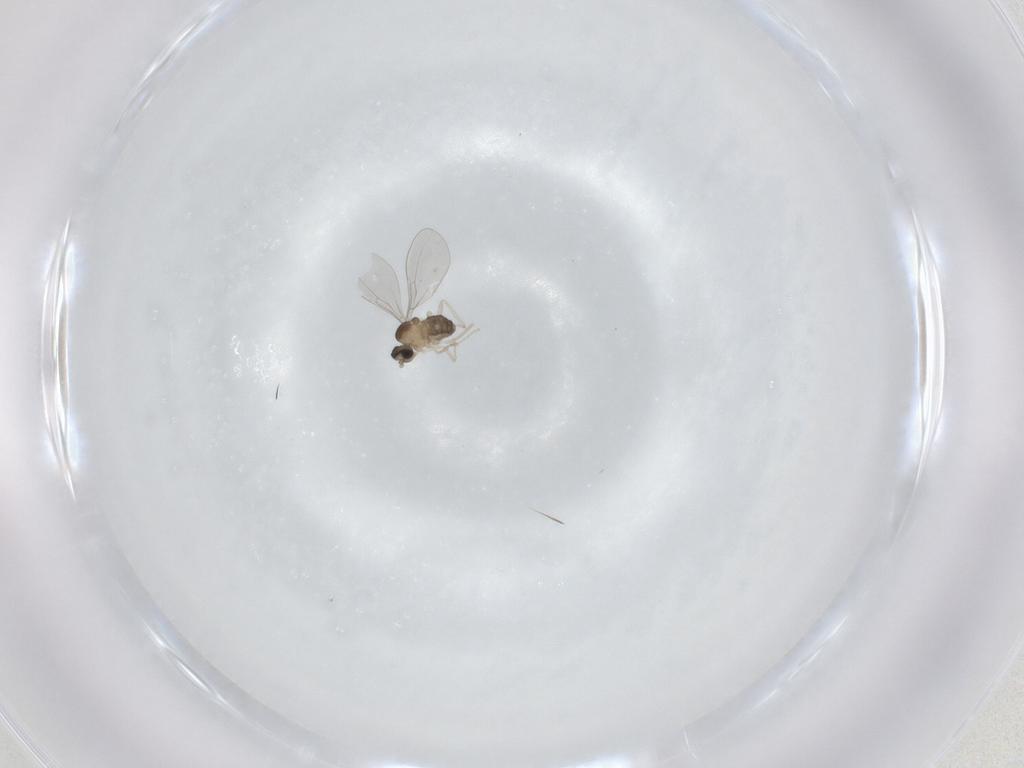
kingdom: Animalia
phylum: Arthropoda
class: Insecta
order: Diptera
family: Cecidomyiidae
